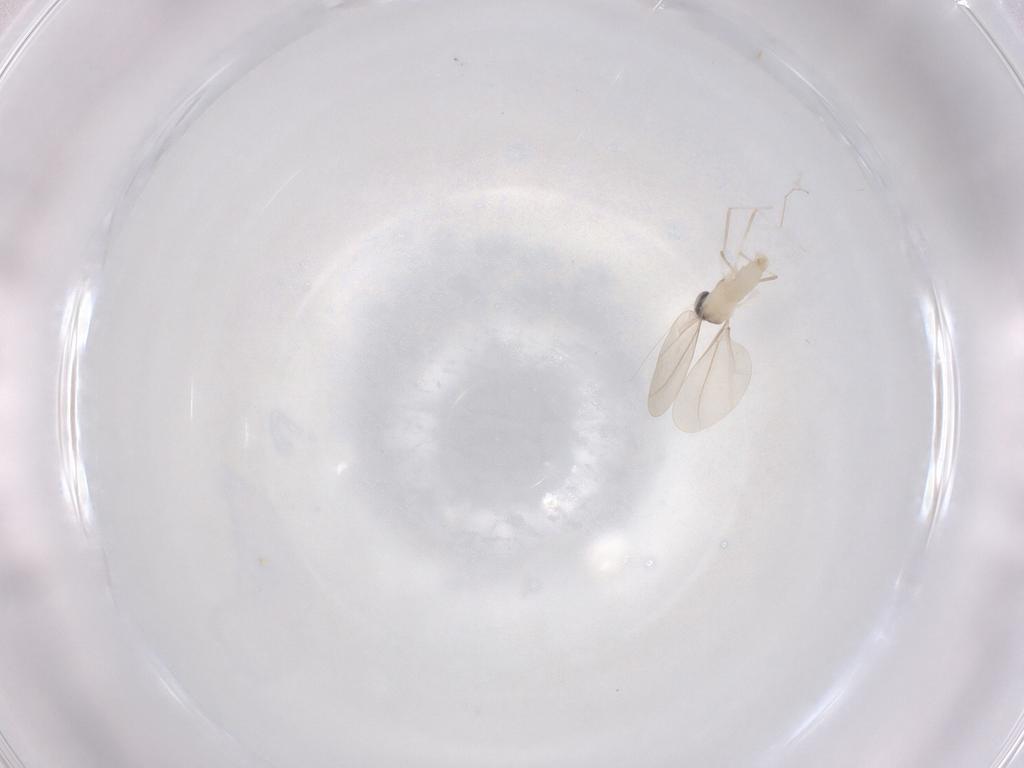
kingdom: Animalia
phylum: Arthropoda
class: Insecta
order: Diptera
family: Cecidomyiidae
